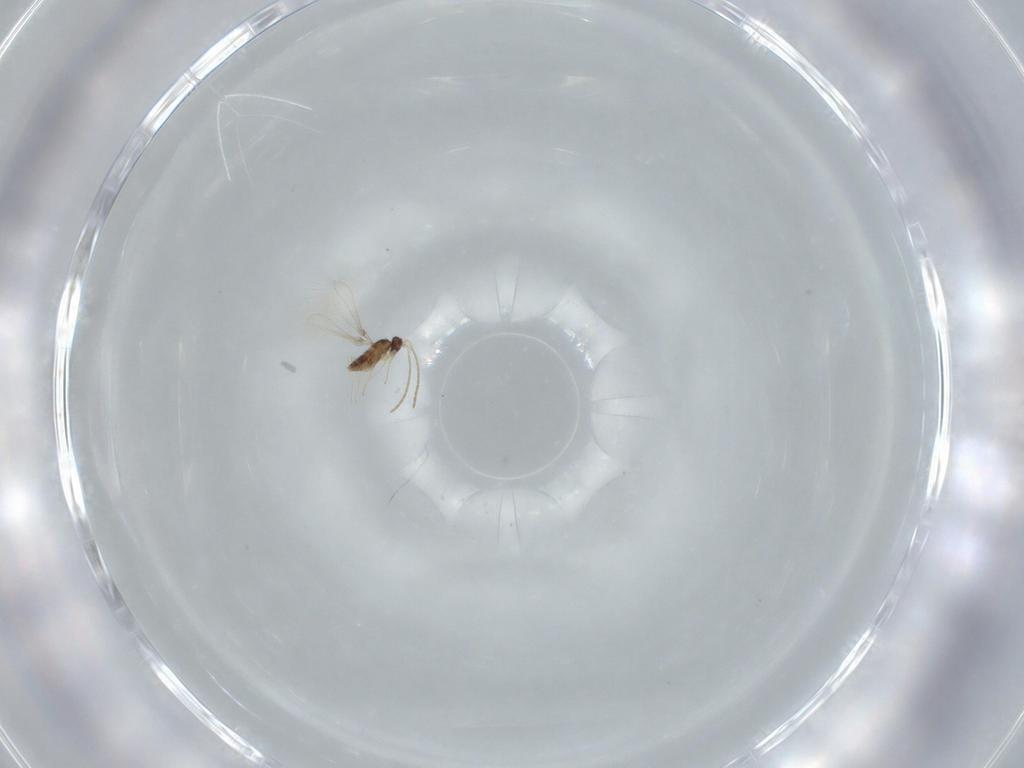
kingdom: Animalia
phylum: Arthropoda
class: Insecta
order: Hymenoptera
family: Mymaridae
